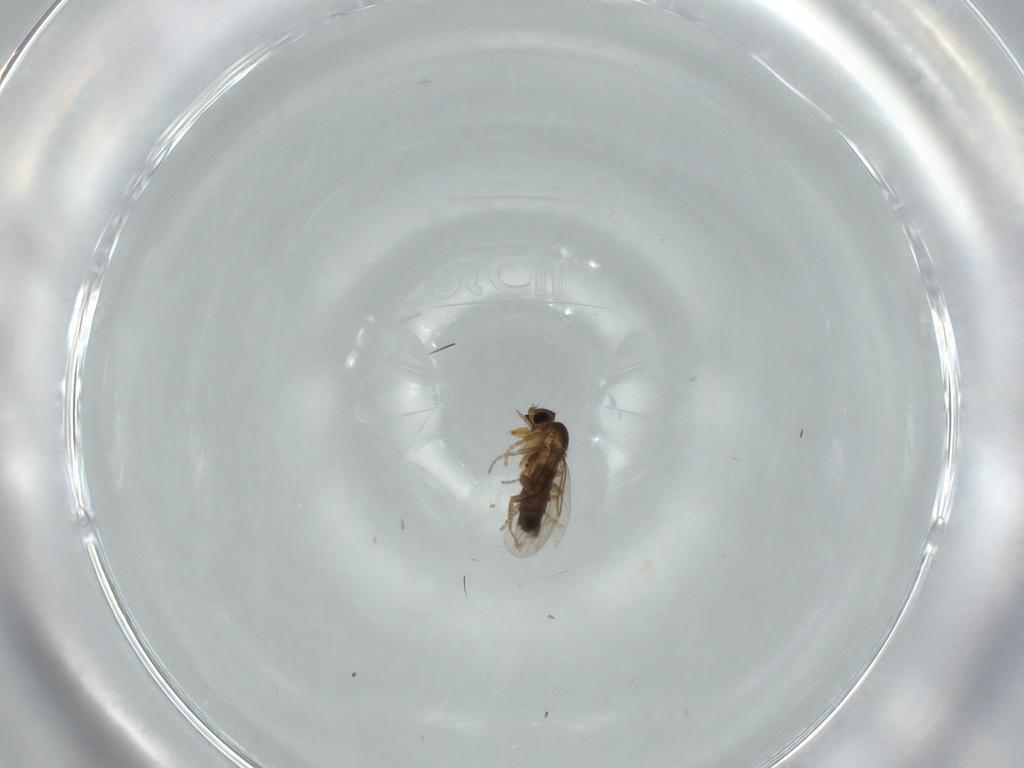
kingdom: Animalia
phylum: Arthropoda
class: Insecta
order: Diptera
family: Phoridae
